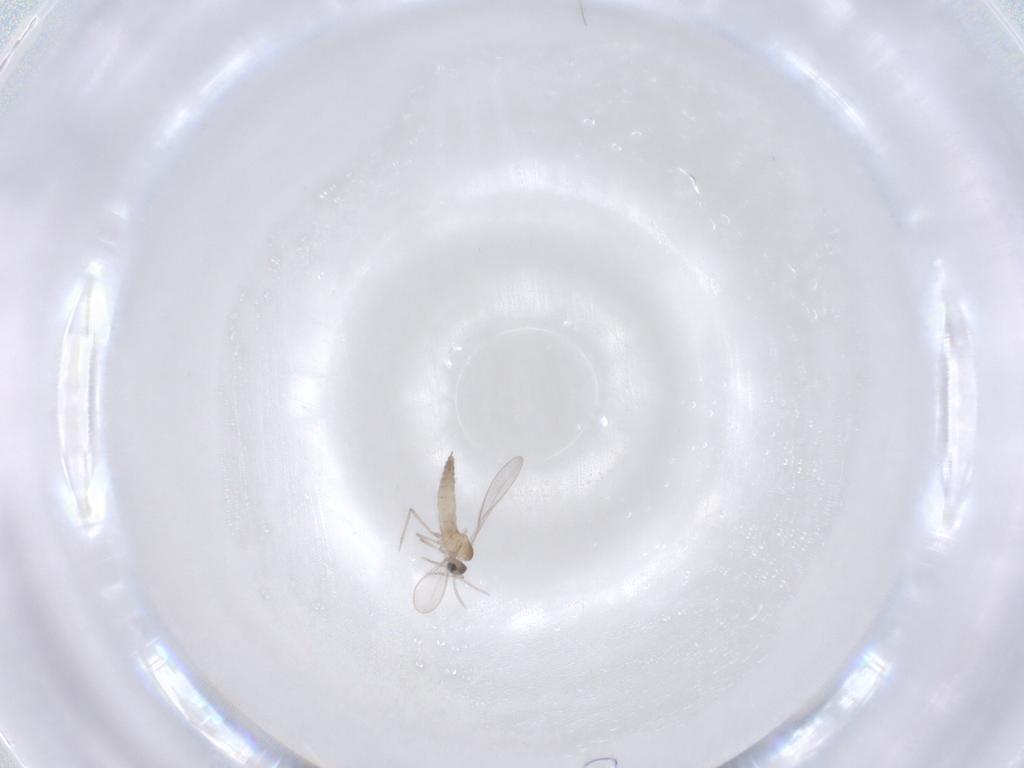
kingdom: Animalia
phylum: Arthropoda
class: Insecta
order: Diptera
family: Cecidomyiidae
